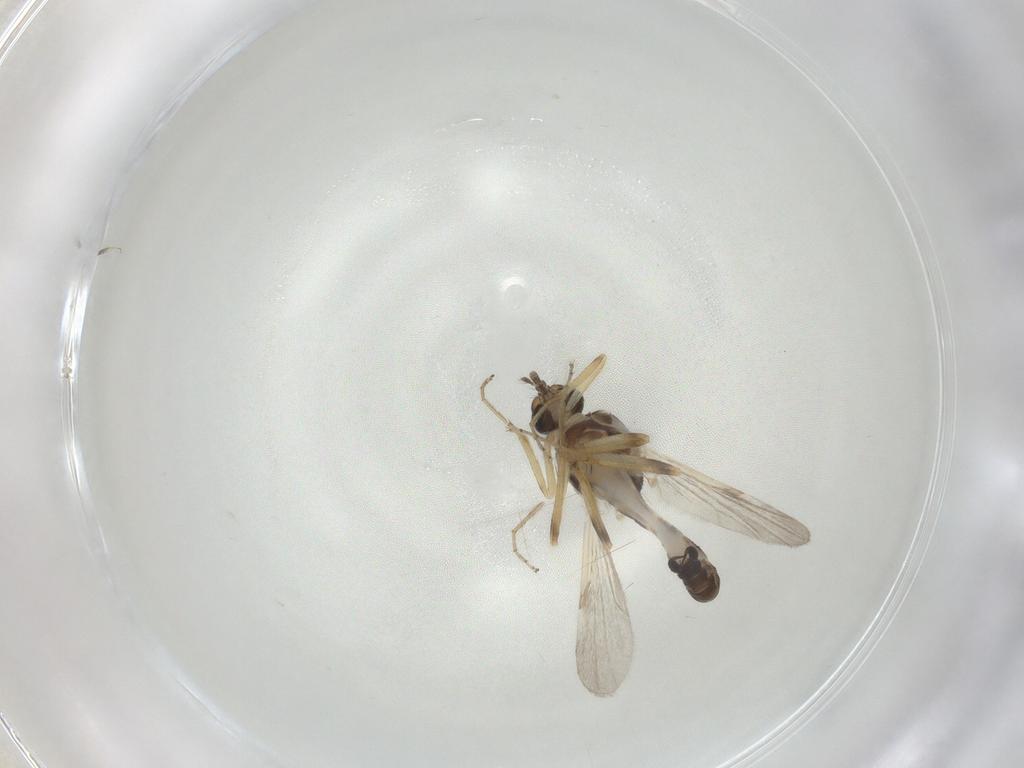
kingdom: Animalia
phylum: Arthropoda
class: Insecta
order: Diptera
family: Ceratopogonidae
